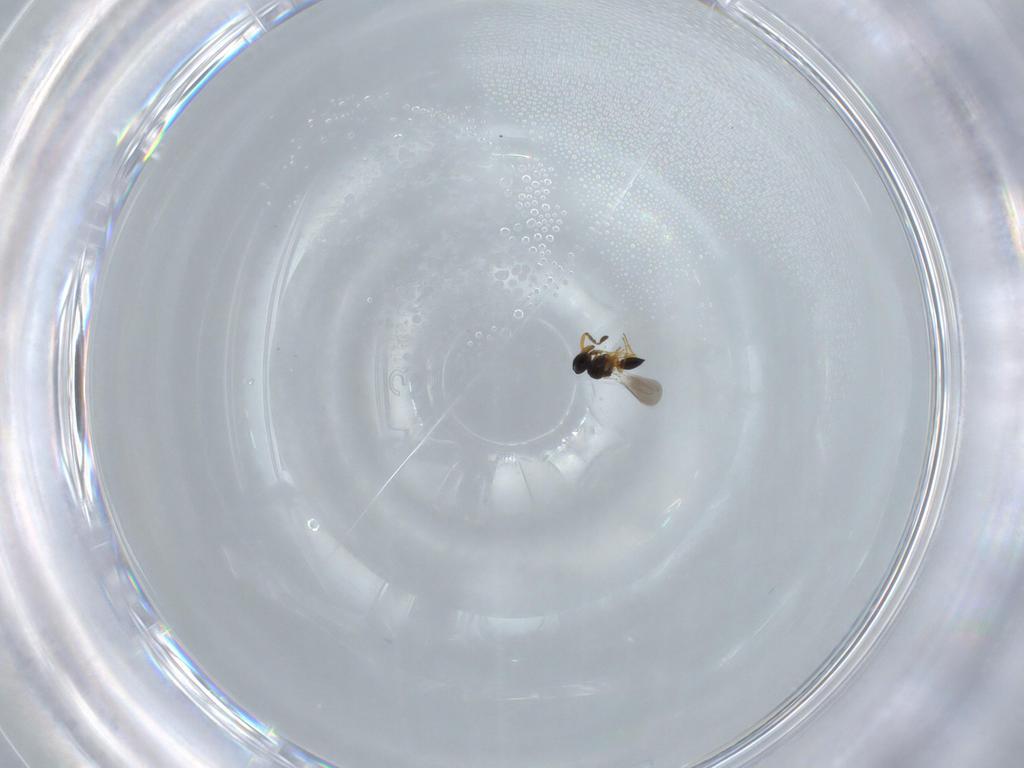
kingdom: Animalia
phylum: Arthropoda
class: Insecta
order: Hymenoptera
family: Platygastridae
